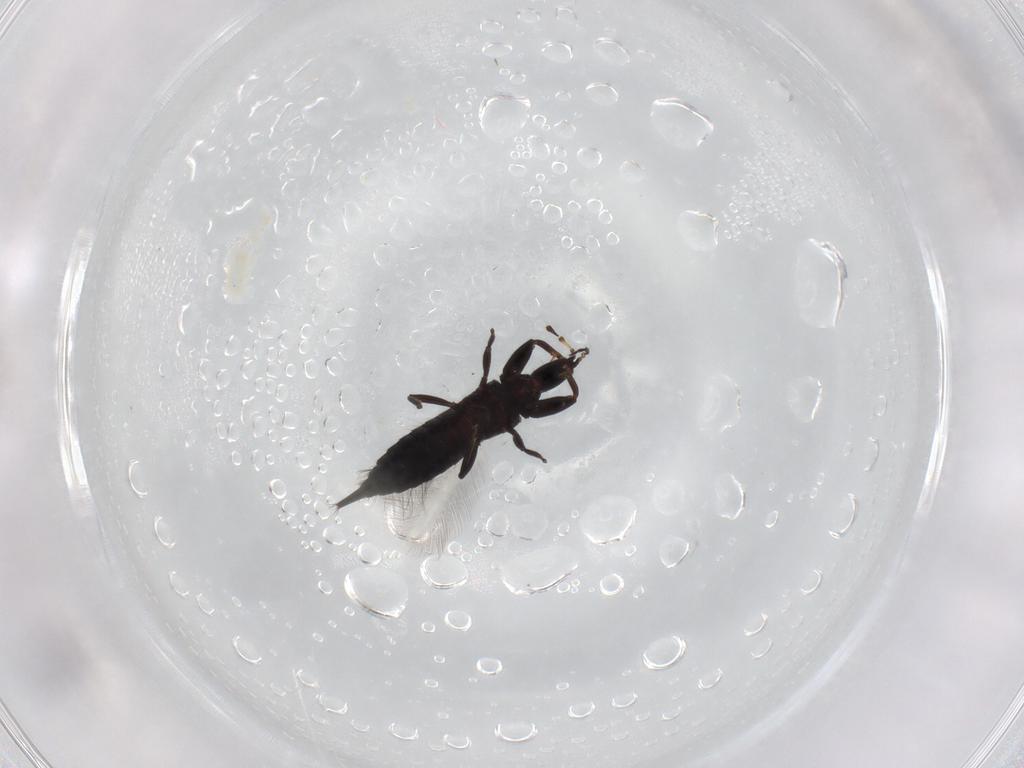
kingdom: Animalia
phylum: Arthropoda
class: Insecta
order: Thysanoptera
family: Phlaeothripidae
